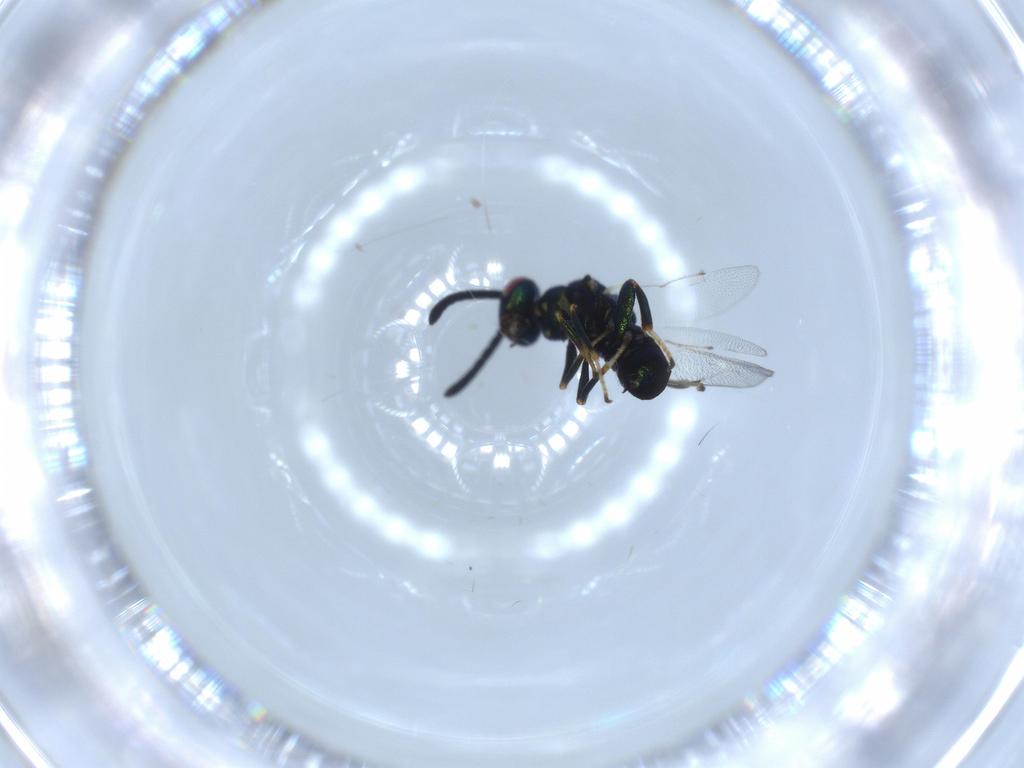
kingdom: Animalia
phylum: Arthropoda
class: Insecta
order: Hymenoptera
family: Torymidae
